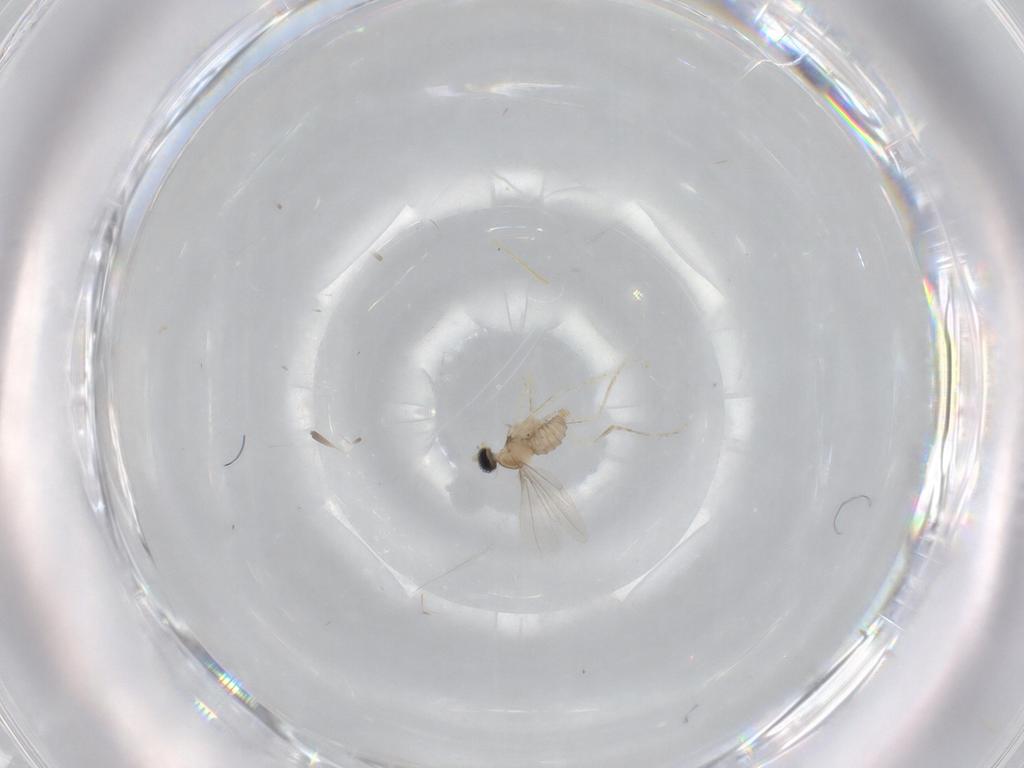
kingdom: Animalia
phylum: Arthropoda
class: Insecta
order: Diptera
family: Cecidomyiidae
